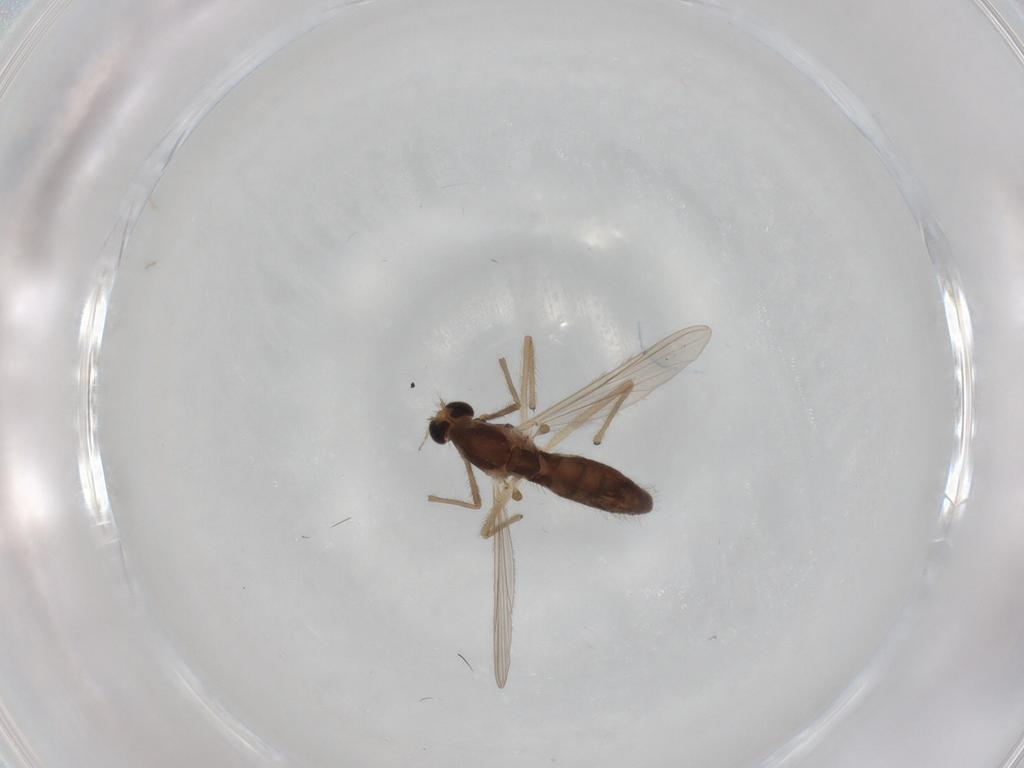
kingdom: Animalia
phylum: Arthropoda
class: Insecta
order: Diptera
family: Chironomidae
